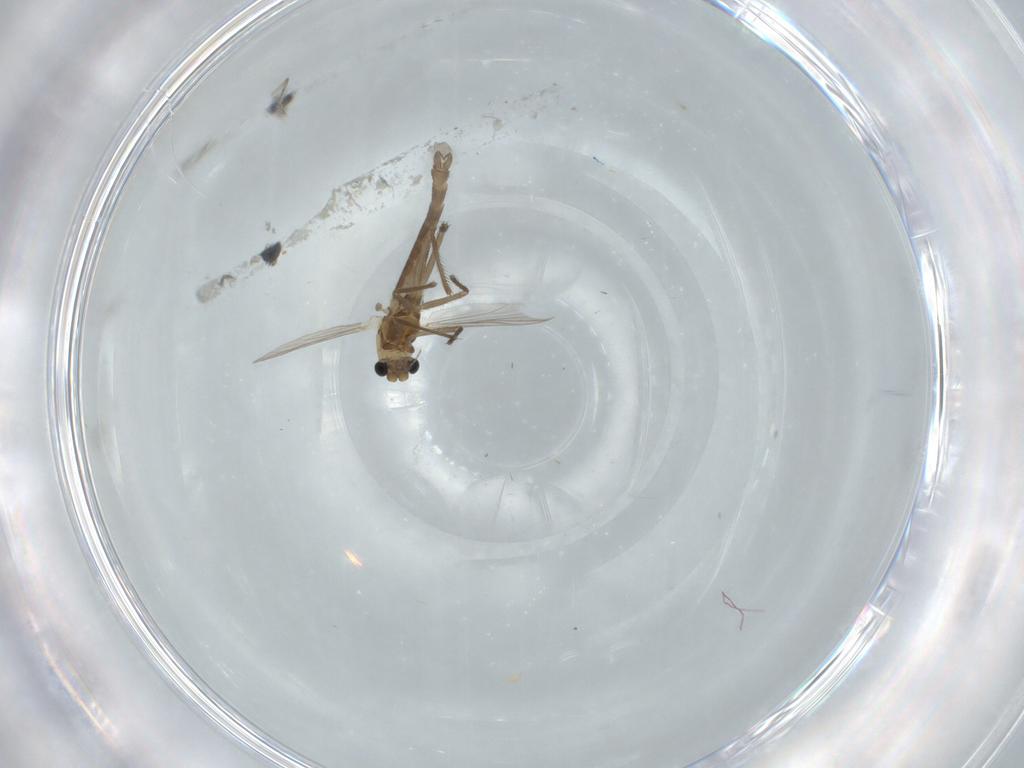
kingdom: Animalia
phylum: Arthropoda
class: Insecta
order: Diptera
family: Chironomidae
